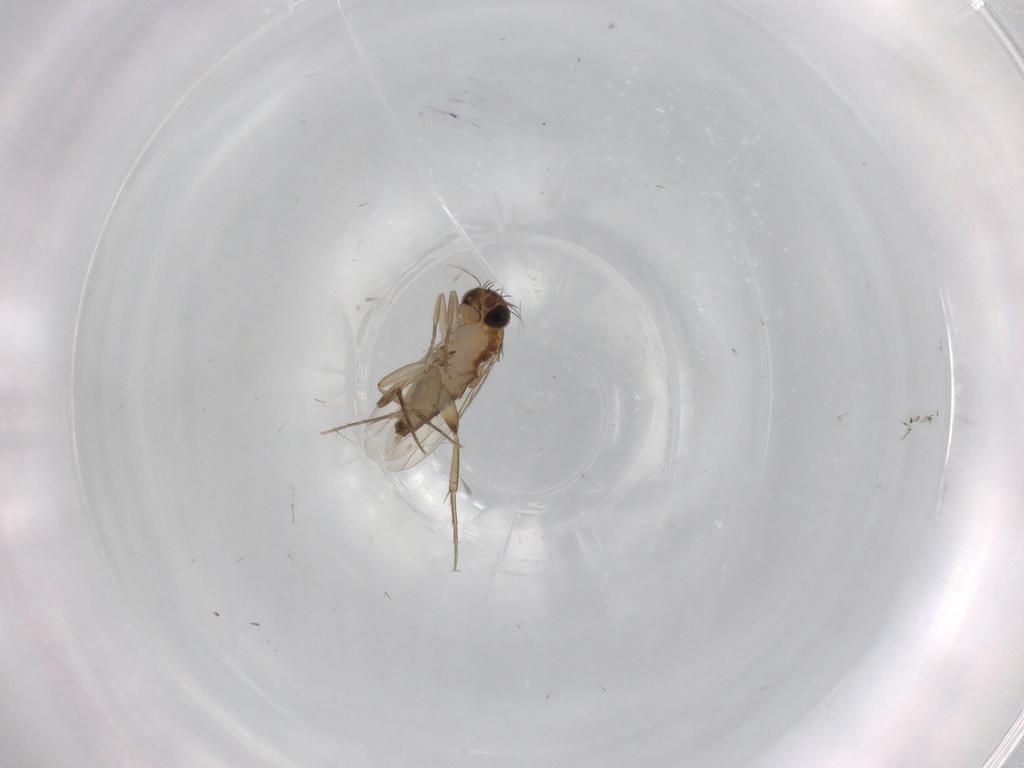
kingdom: Animalia
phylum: Arthropoda
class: Insecta
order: Diptera
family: Phoridae
